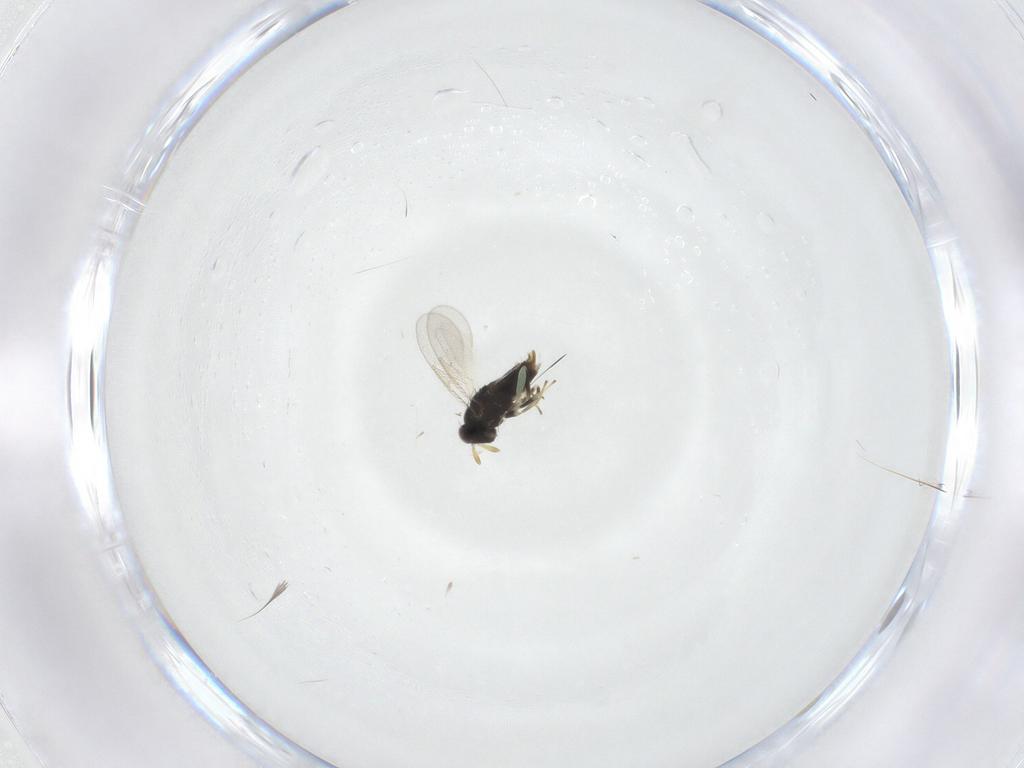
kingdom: Animalia
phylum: Arthropoda
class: Insecta
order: Hymenoptera
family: Aphelinidae
